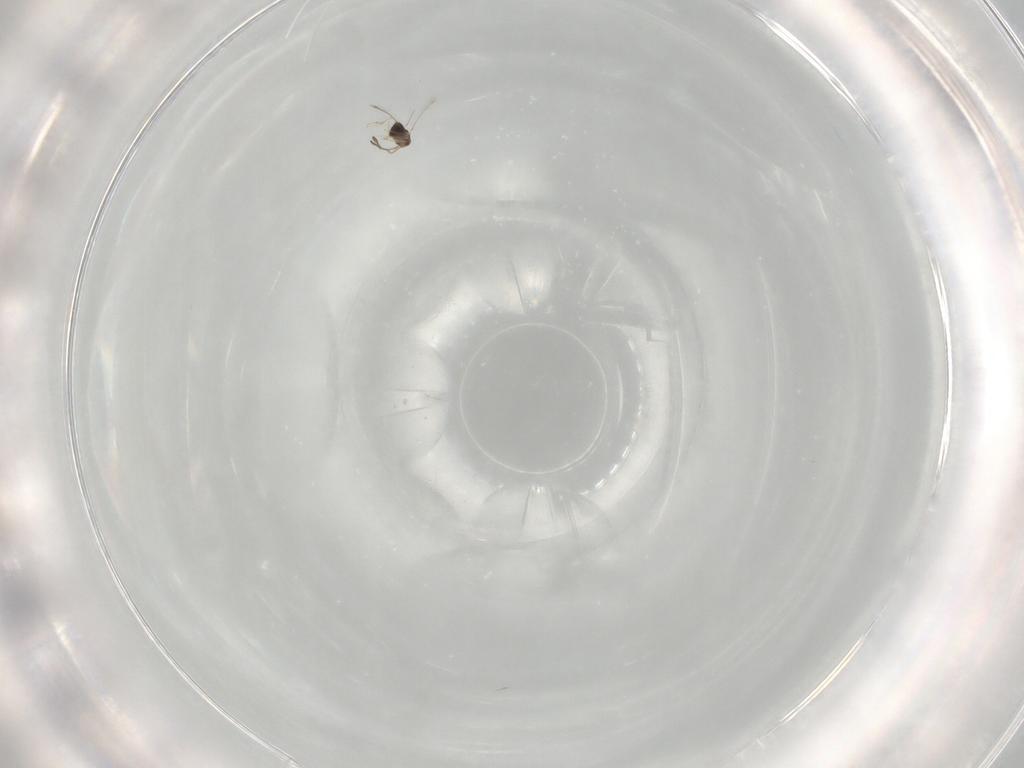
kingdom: Animalia
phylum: Arthropoda
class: Insecta
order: Hymenoptera
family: Mymaridae
